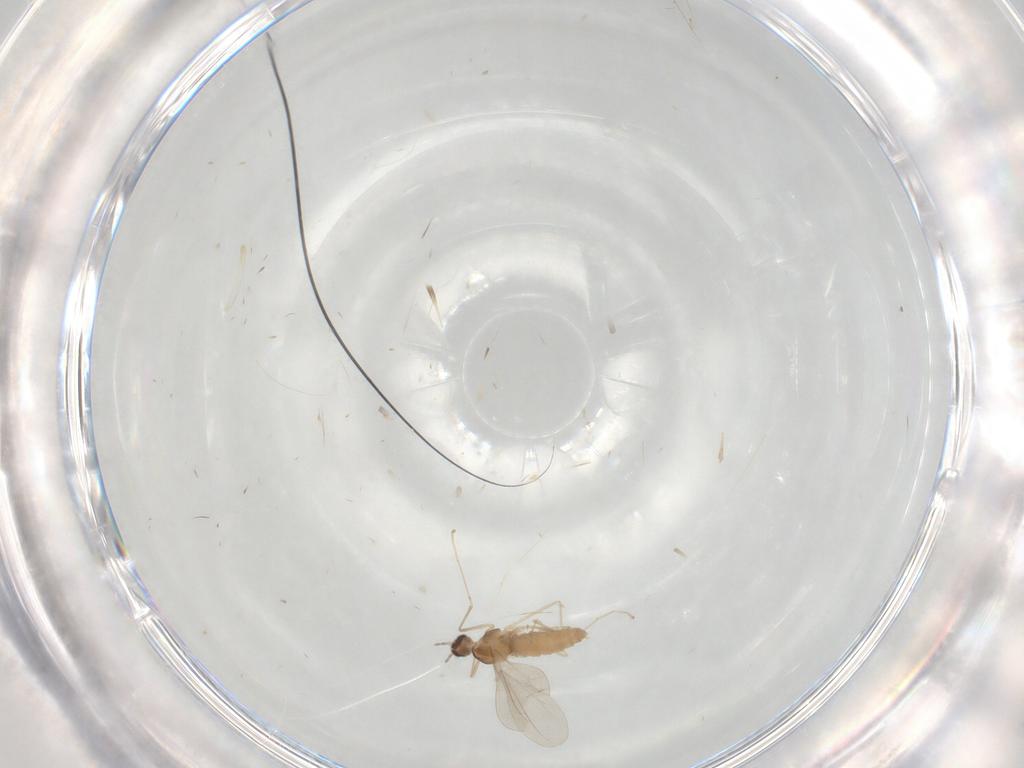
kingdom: Animalia
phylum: Arthropoda
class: Insecta
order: Diptera
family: Cecidomyiidae
